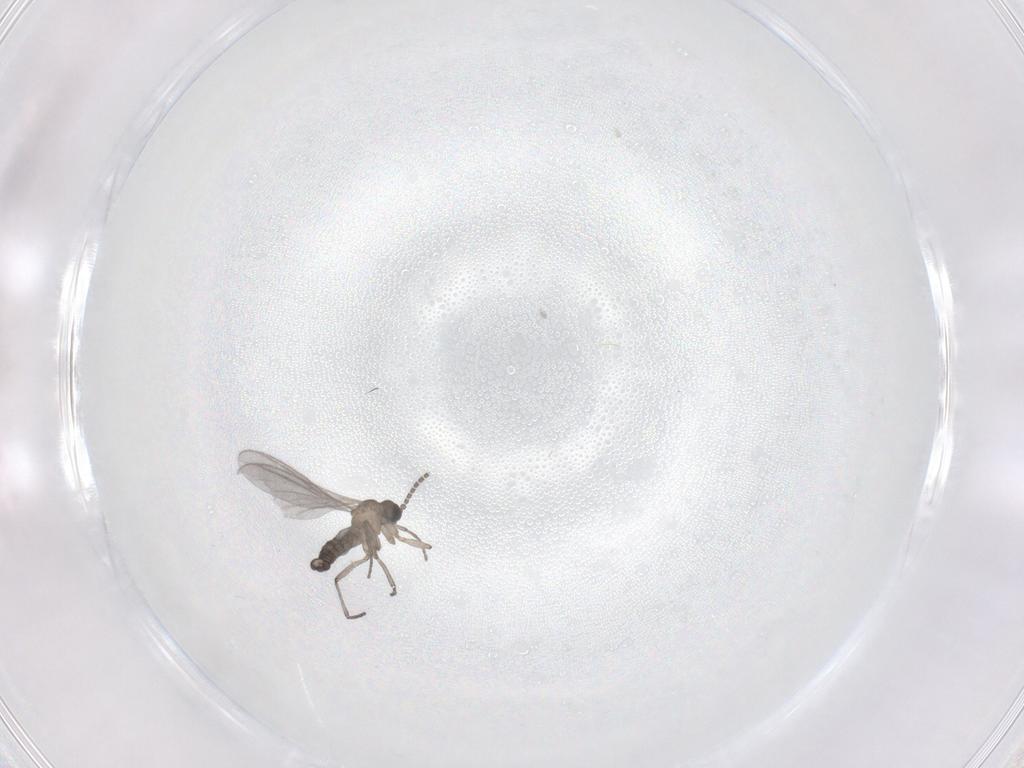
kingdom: Animalia
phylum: Arthropoda
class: Insecta
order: Diptera
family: Sciaridae
